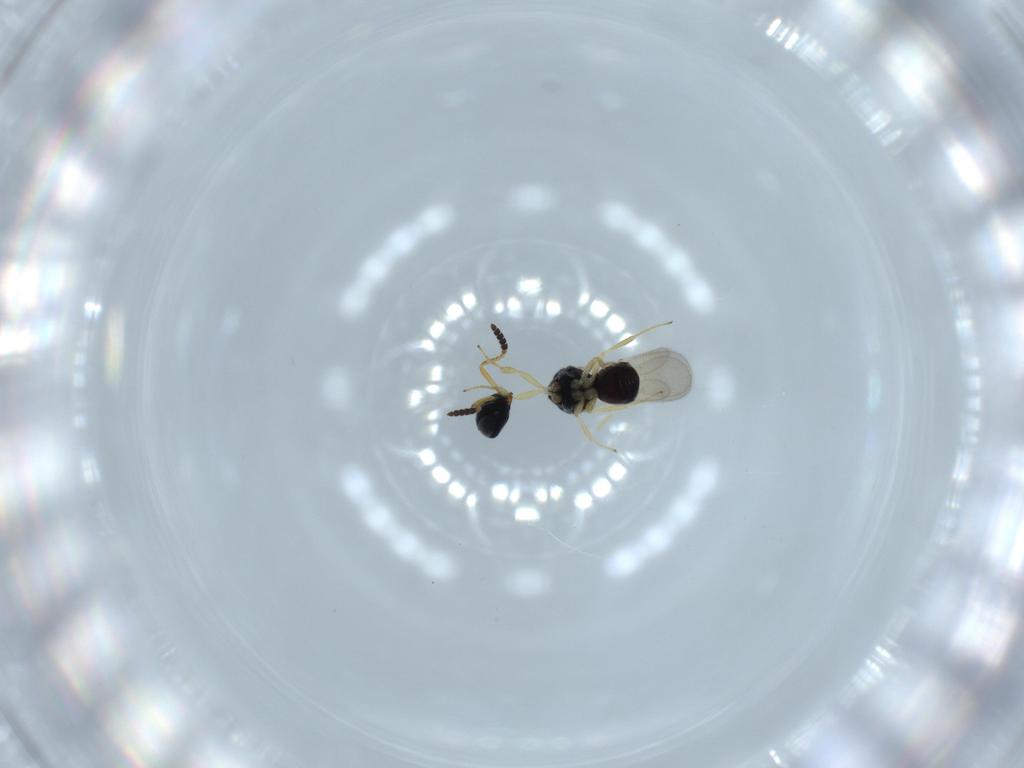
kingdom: Animalia
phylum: Arthropoda
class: Insecta
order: Hymenoptera
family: Scelionidae
